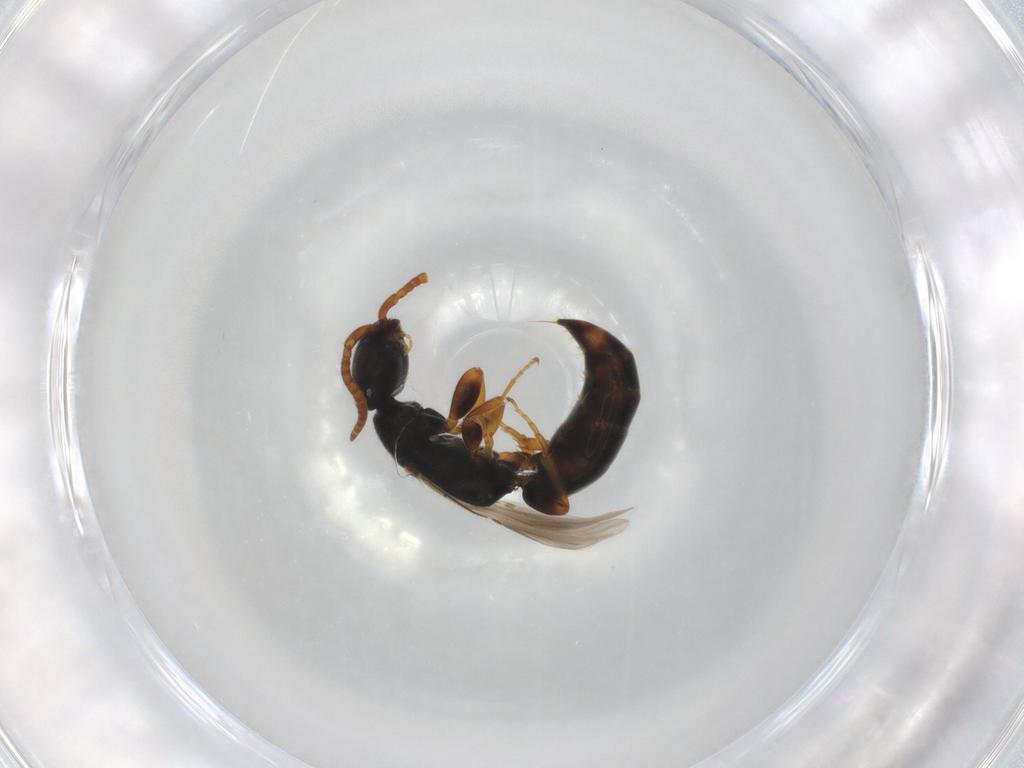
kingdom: Animalia
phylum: Arthropoda
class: Insecta
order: Hymenoptera
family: Bethylidae
